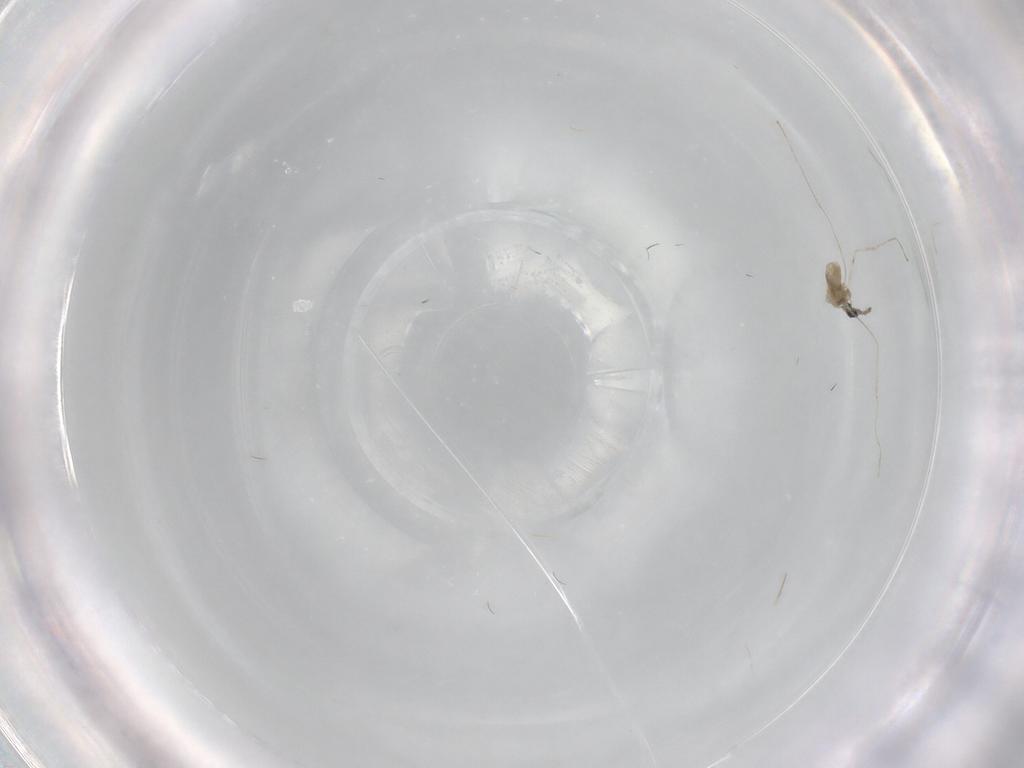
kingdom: Animalia
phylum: Arthropoda
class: Insecta
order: Diptera
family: Cecidomyiidae
